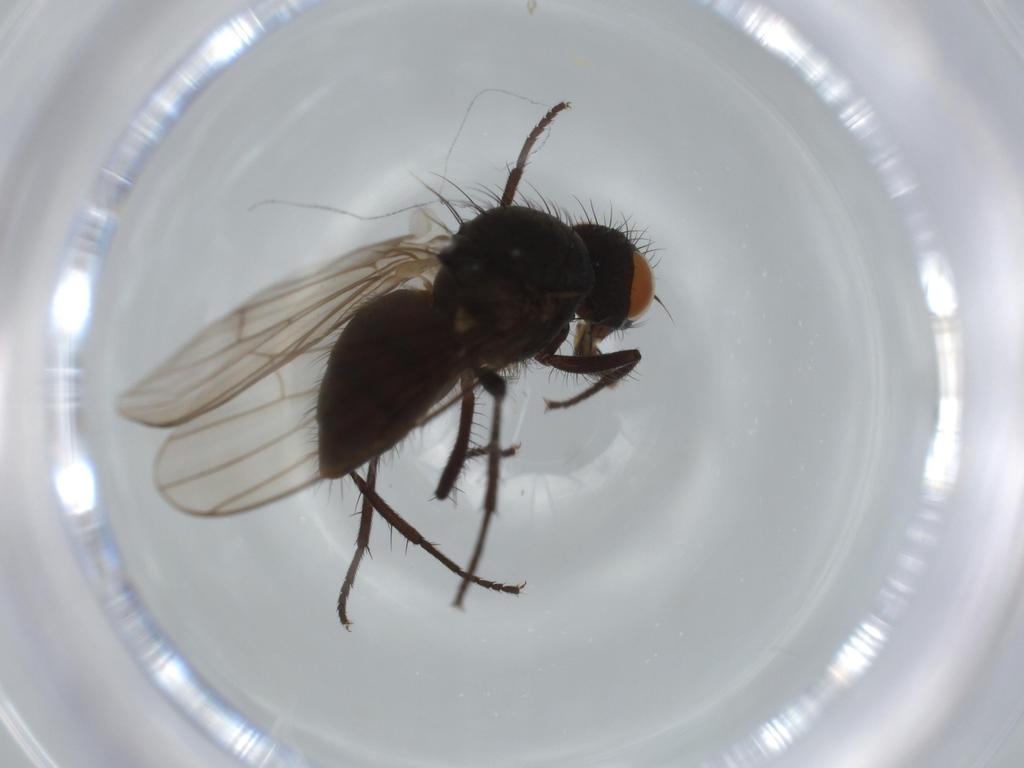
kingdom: Animalia
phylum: Arthropoda
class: Insecta
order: Diptera
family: Anthomyiidae
